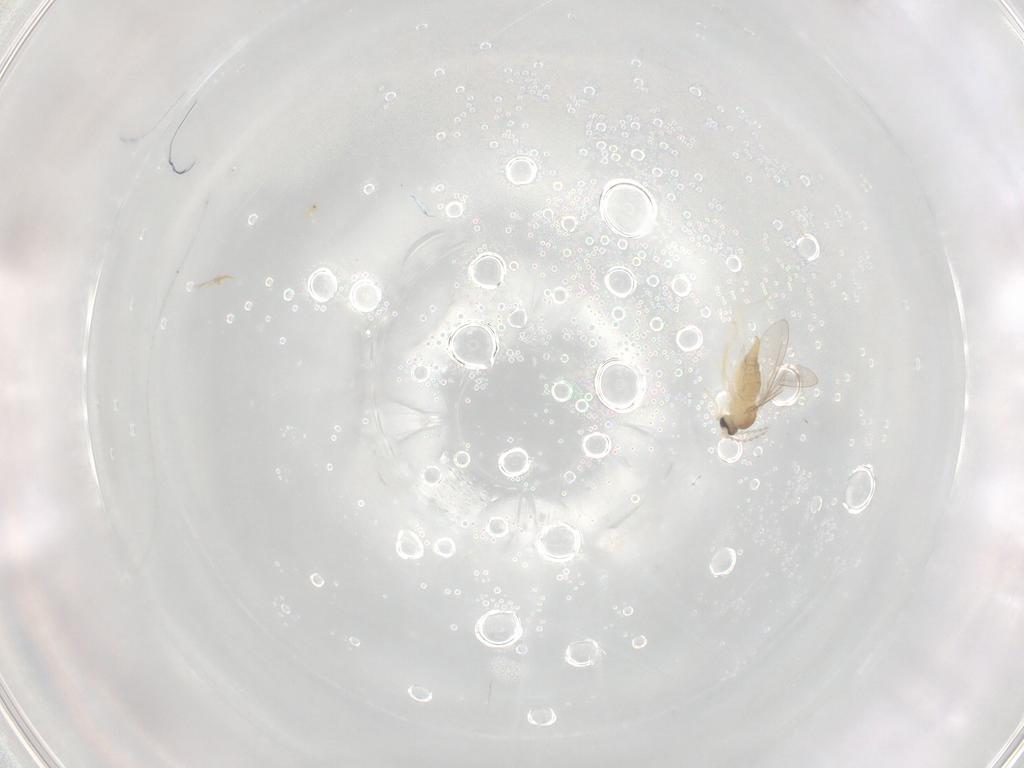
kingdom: Animalia
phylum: Arthropoda
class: Insecta
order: Diptera
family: Cecidomyiidae
